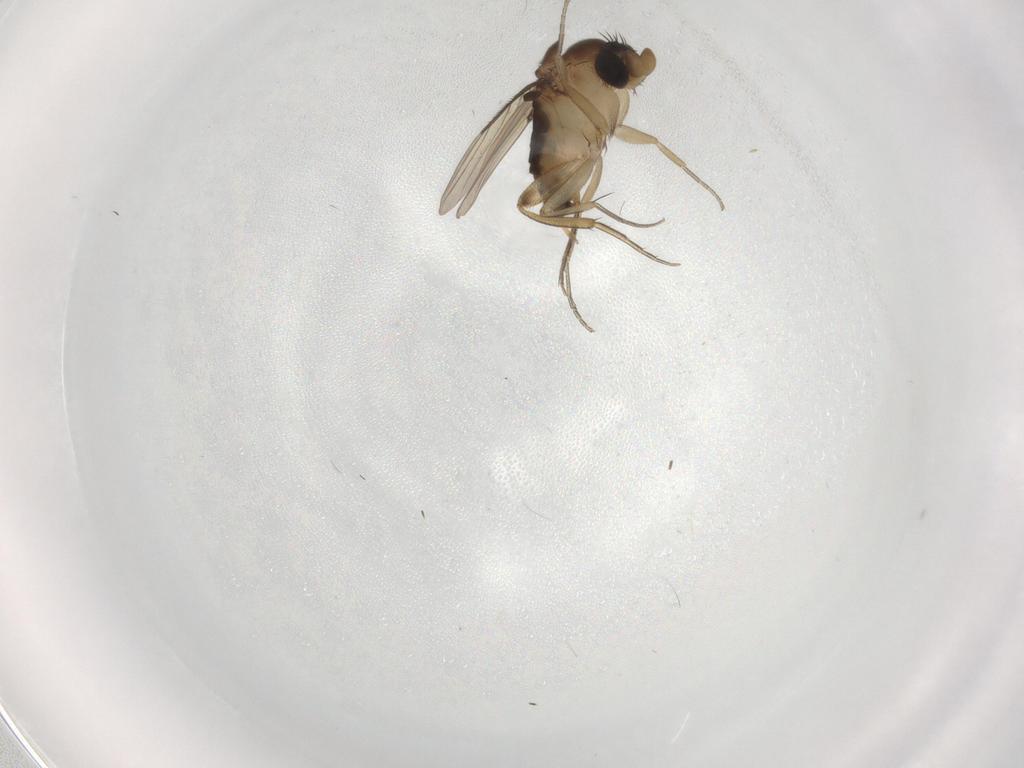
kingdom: Animalia
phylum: Arthropoda
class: Insecta
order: Diptera
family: Phoridae
